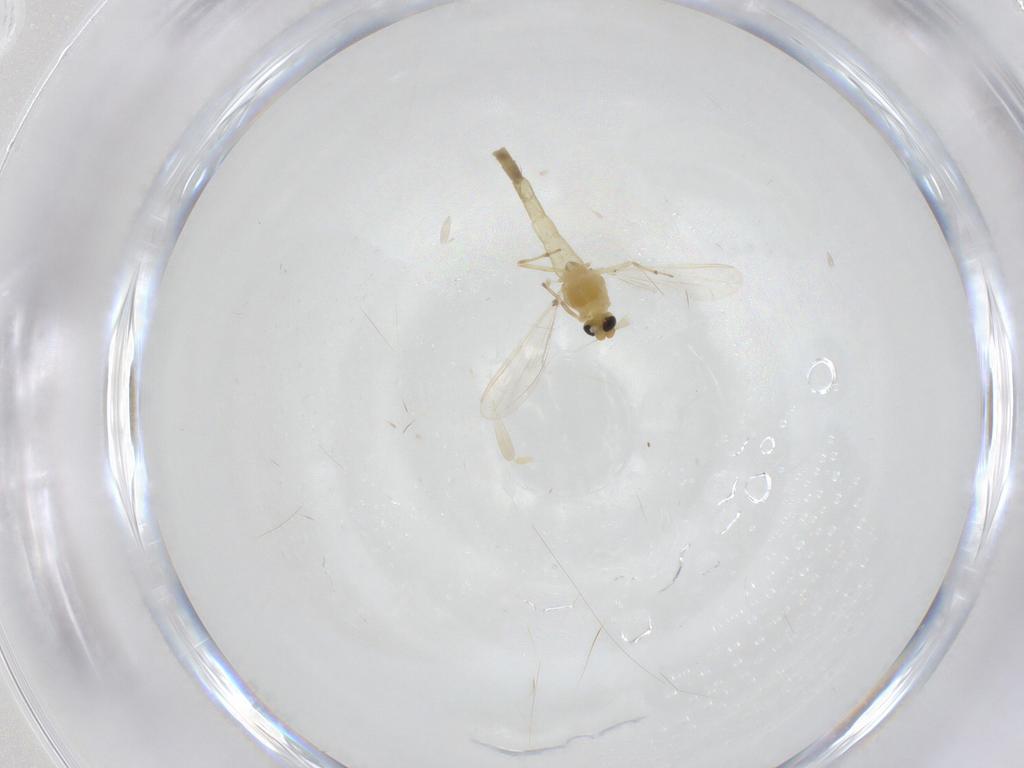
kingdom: Animalia
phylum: Arthropoda
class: Insecta
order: Diptera
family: Chironomidae
